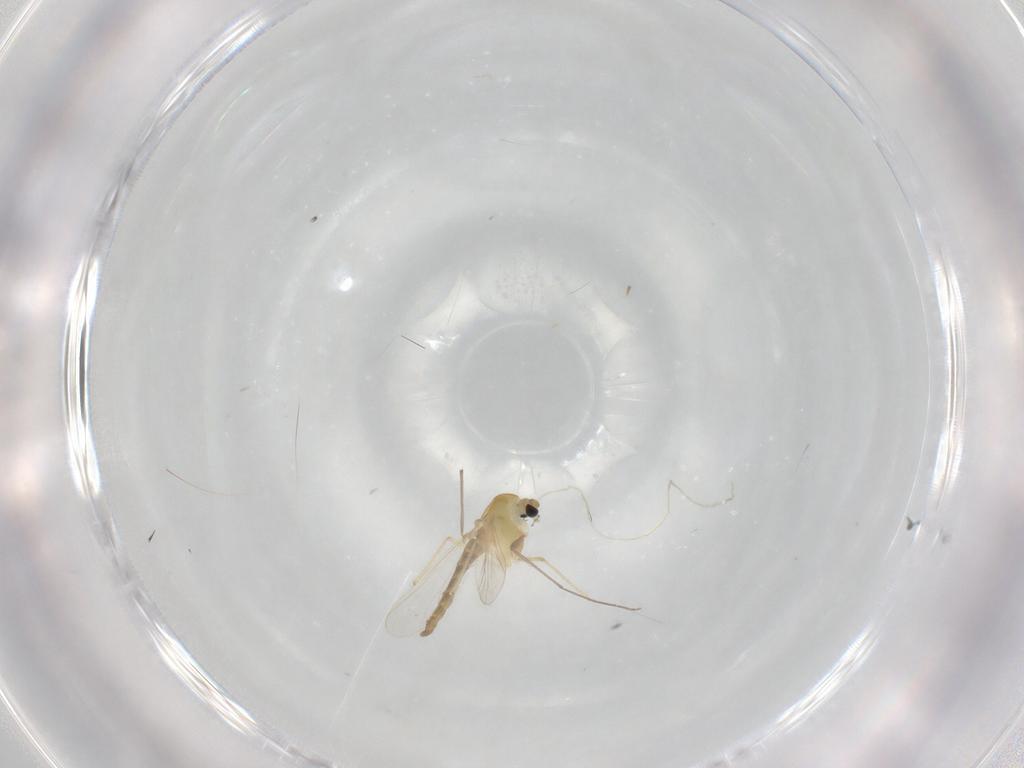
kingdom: Animalia
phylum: Arthropoda
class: Insecta
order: Diptera
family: Chironomidae
